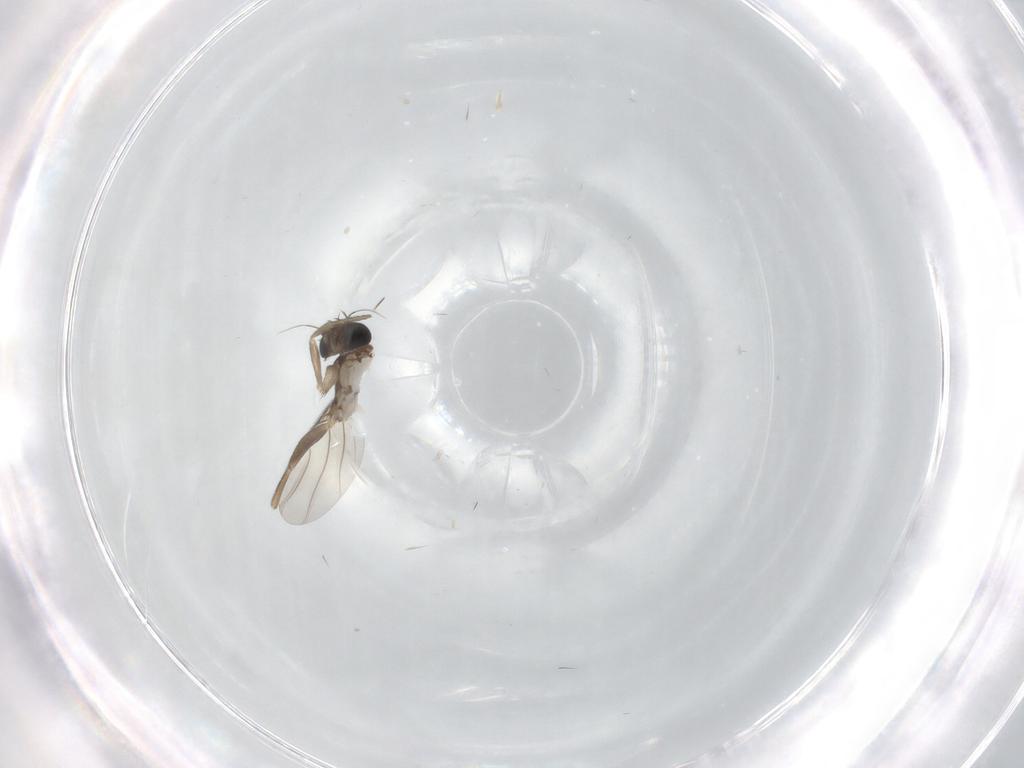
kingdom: Animalia
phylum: Arthropoda
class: Insecta
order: Diptera
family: Phoridae
